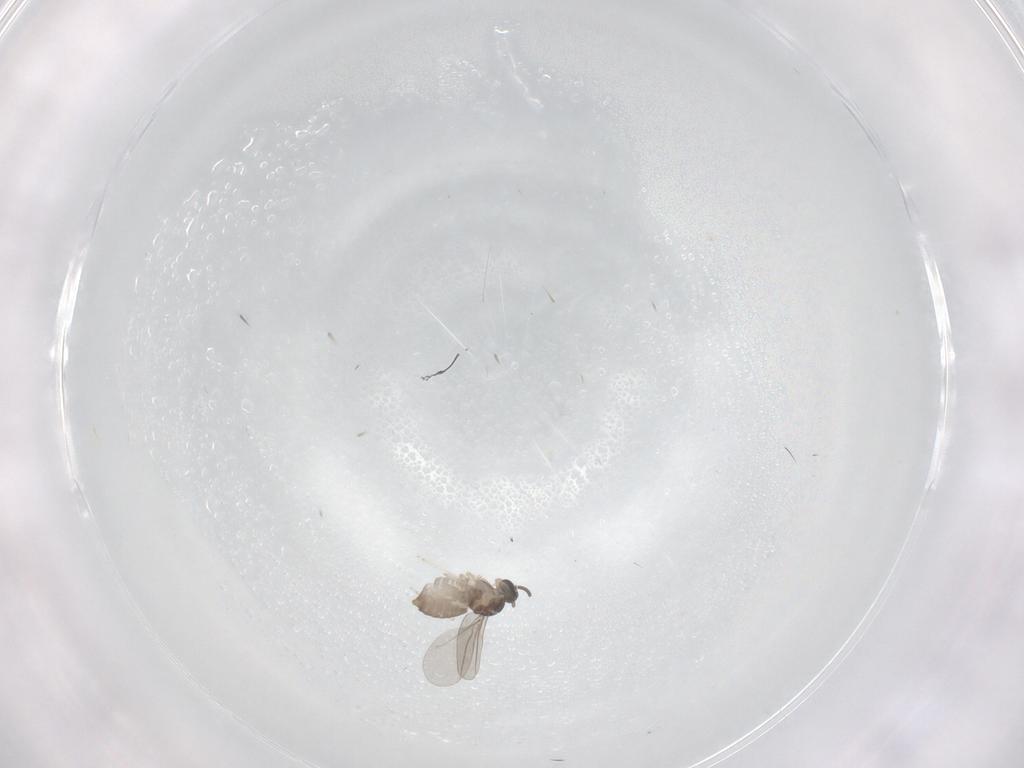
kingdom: Animalia
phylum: Arthropoda
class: Insecta
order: Diptera
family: Cecidomyiidae
